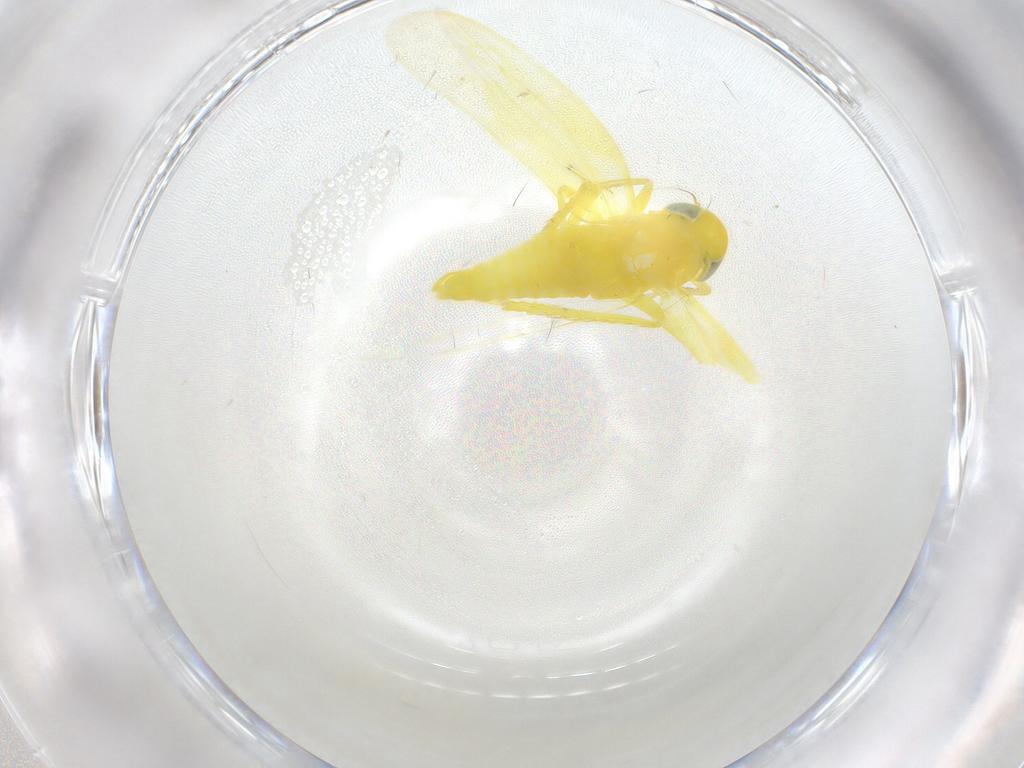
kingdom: Animalia
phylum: Arthropoda
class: Insecta
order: Hemiptera
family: Cicadellidae
